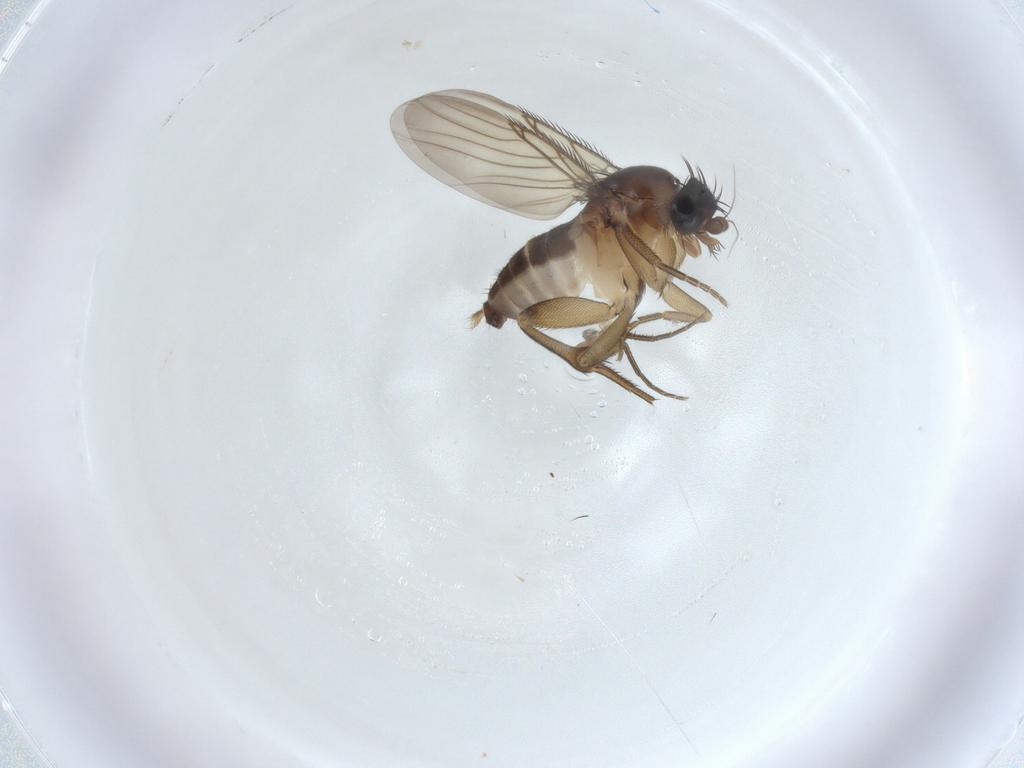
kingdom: Animalia
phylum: Arthropoda
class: Insecta
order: Diptera
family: Phoridae
